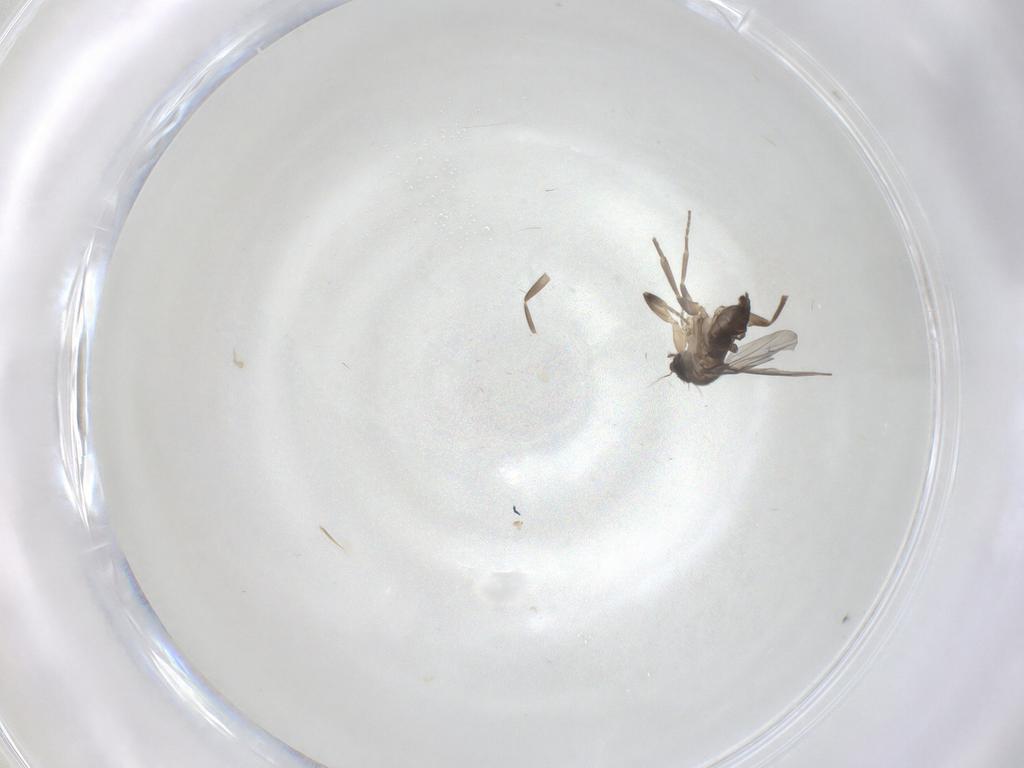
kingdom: Animalia
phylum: Arthropoda
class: Insecta
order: Diptera
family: Phoridae
